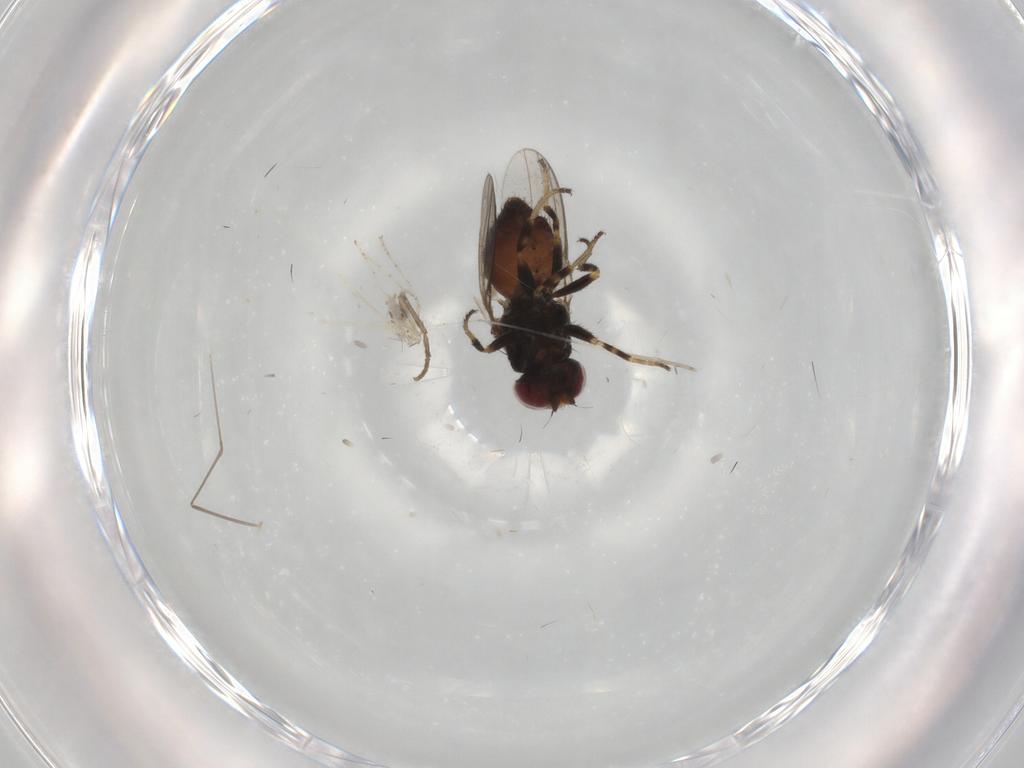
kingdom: Animalia
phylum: Arthropoda
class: Insecta
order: Diptera
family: Chloropidae
